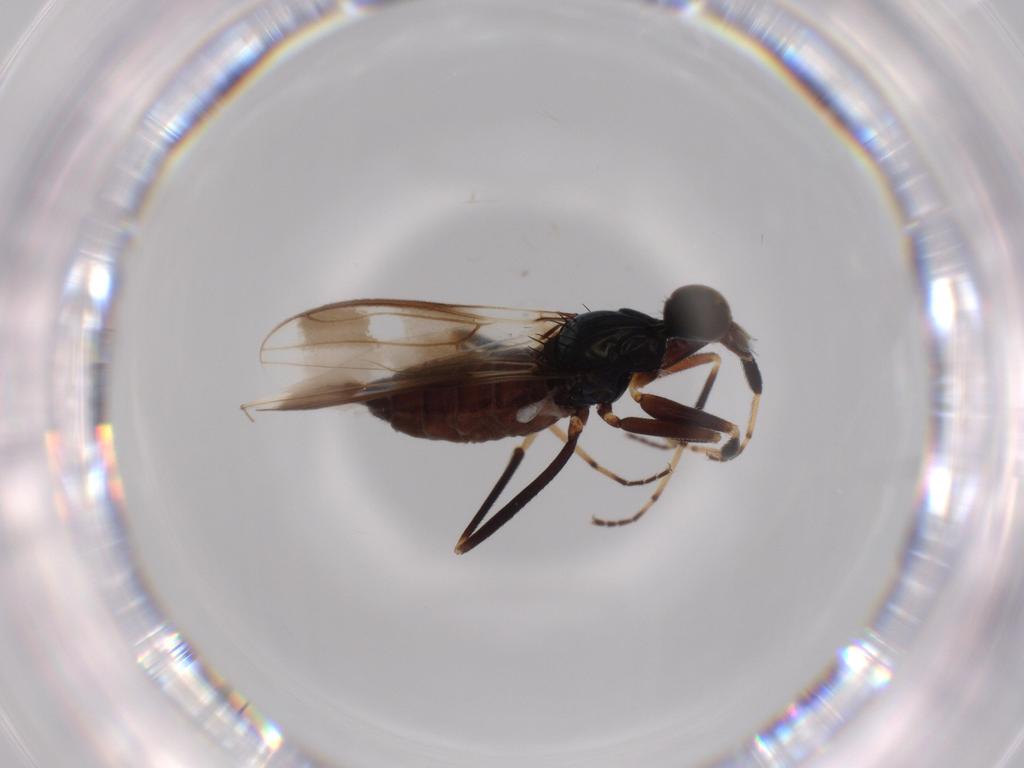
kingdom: Animalia
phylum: Arthropoda
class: Insecta
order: Diptera
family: Hybotidae
